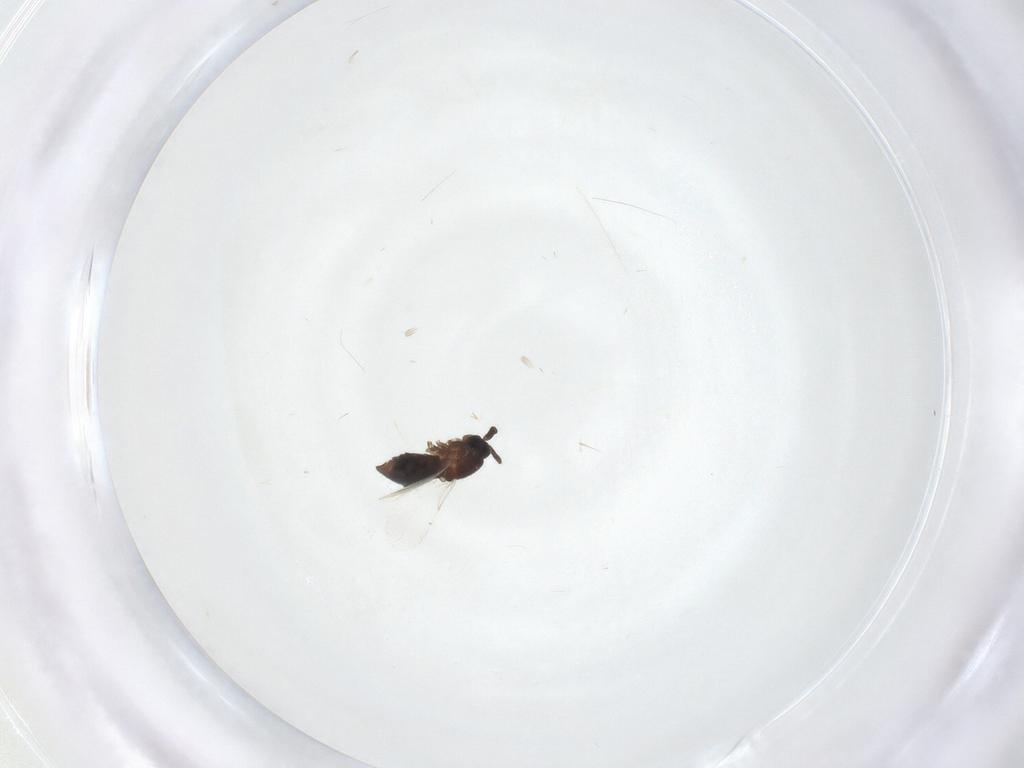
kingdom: Animalia
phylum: Arthropoda
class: Insecta
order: Diptera
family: Scatopsidae
